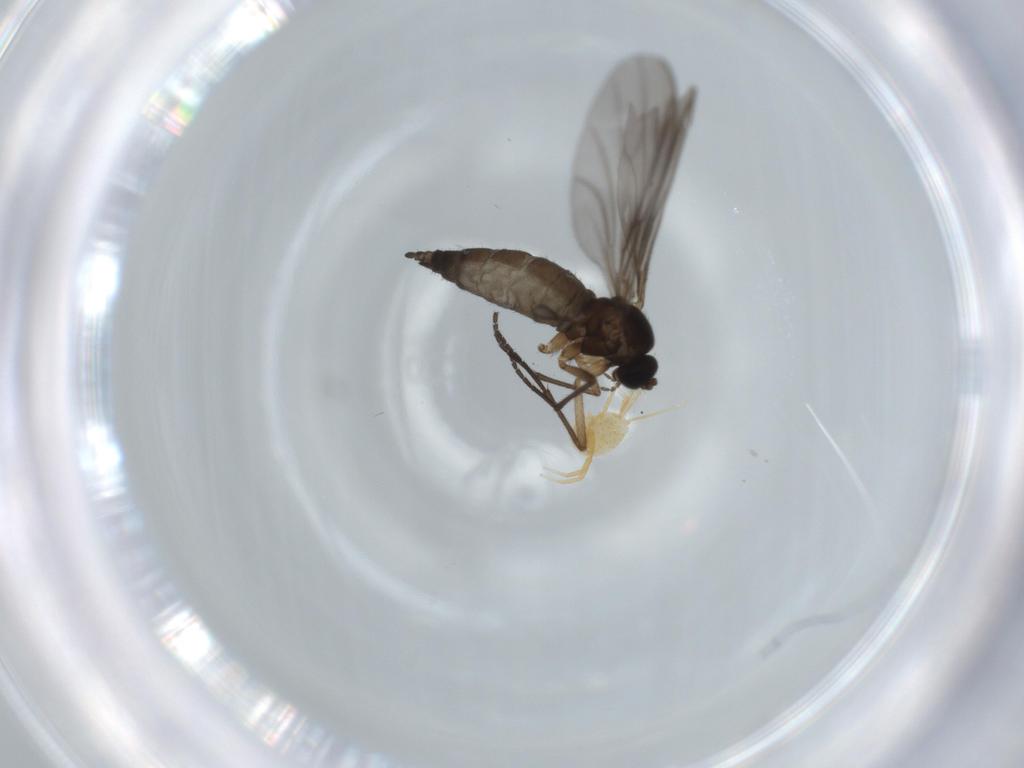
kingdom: Animalia
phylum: Arthropoda
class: Insecta
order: Diptera
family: Sciaridae
